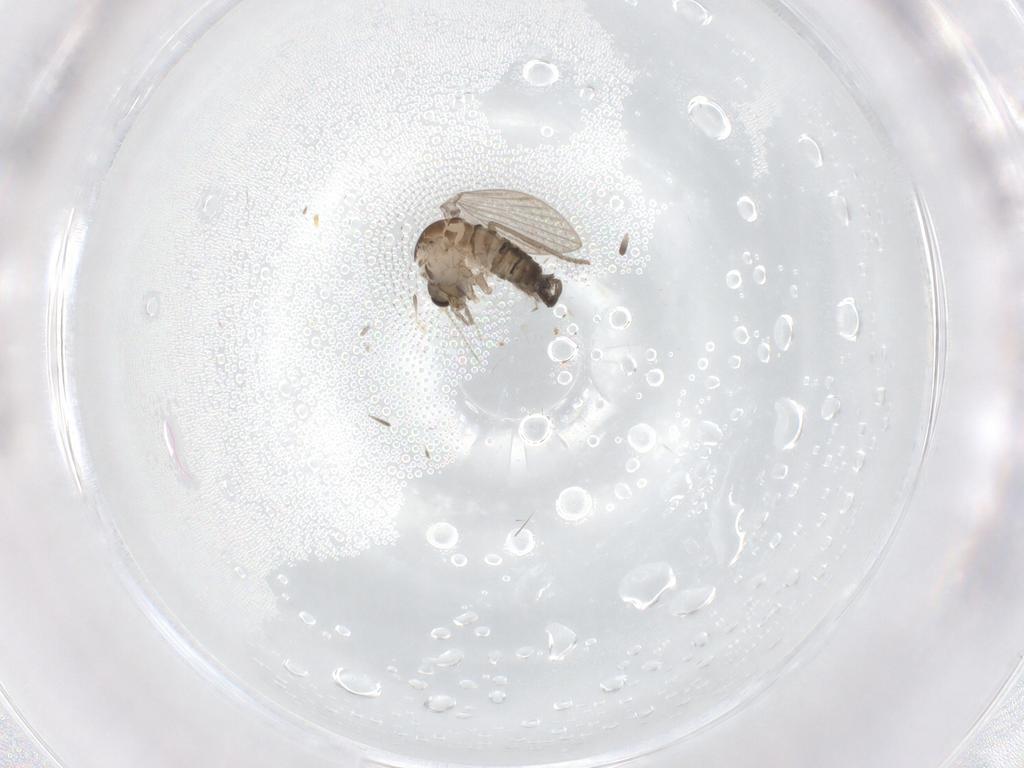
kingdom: Animalia
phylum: Arthropoda
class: Insecta
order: Diptera
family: Psychodidae
